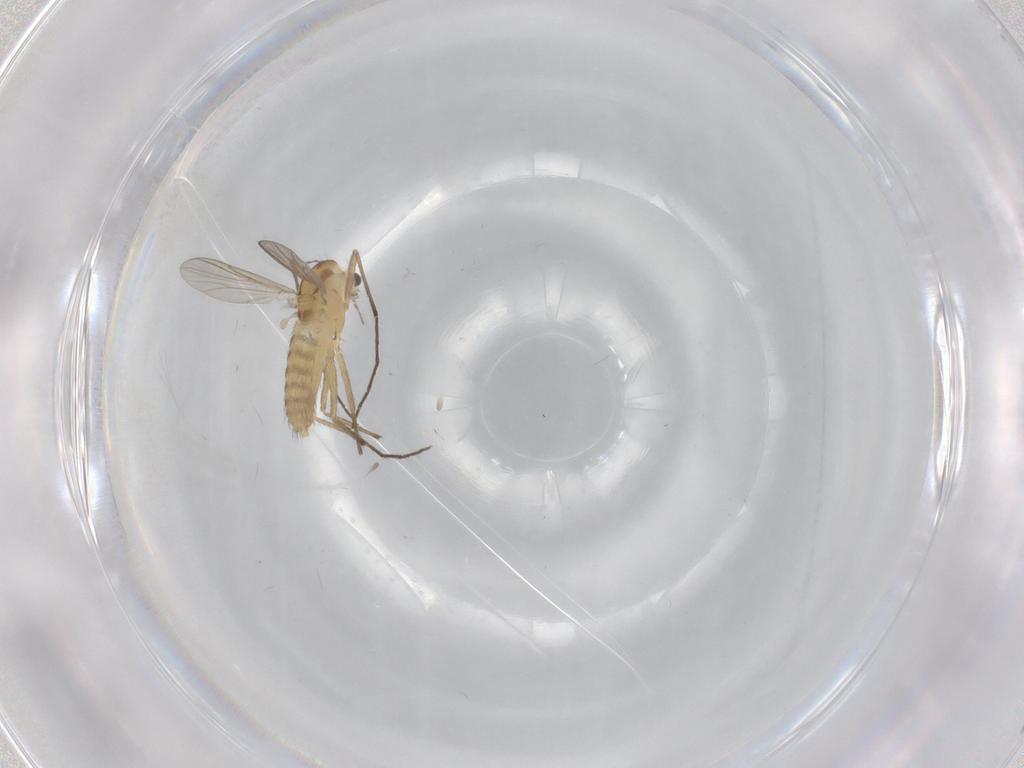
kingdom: Animalia
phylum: Arthropoda
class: Insecta
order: Diptera
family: Chironomidae
